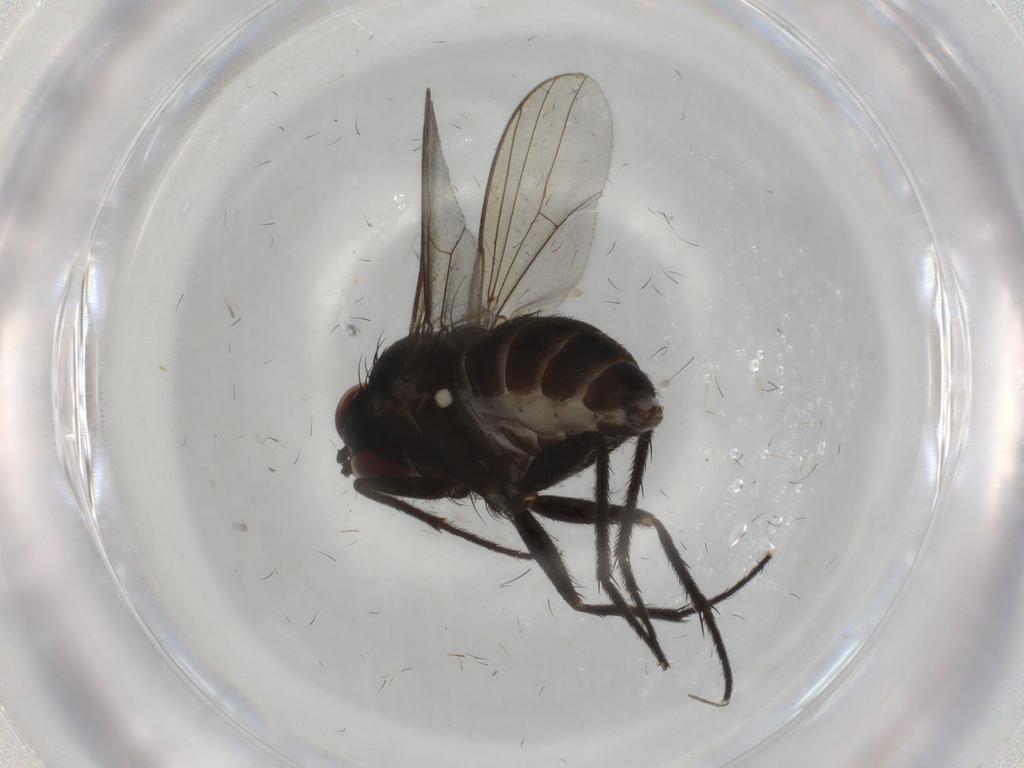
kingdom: Animalia
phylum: Arthropoda
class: Insecta
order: Diptera
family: Dolichopodidae
